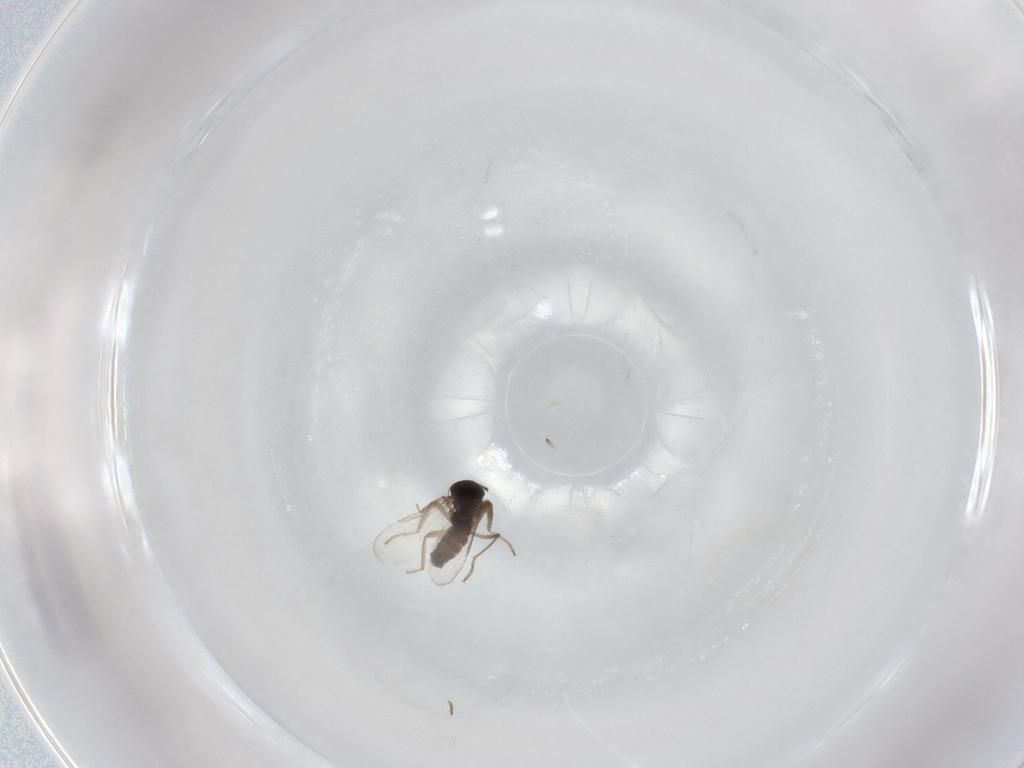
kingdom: Animalia
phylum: Arthropoda
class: Insecta
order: Diptera
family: Ceratopogonidae
